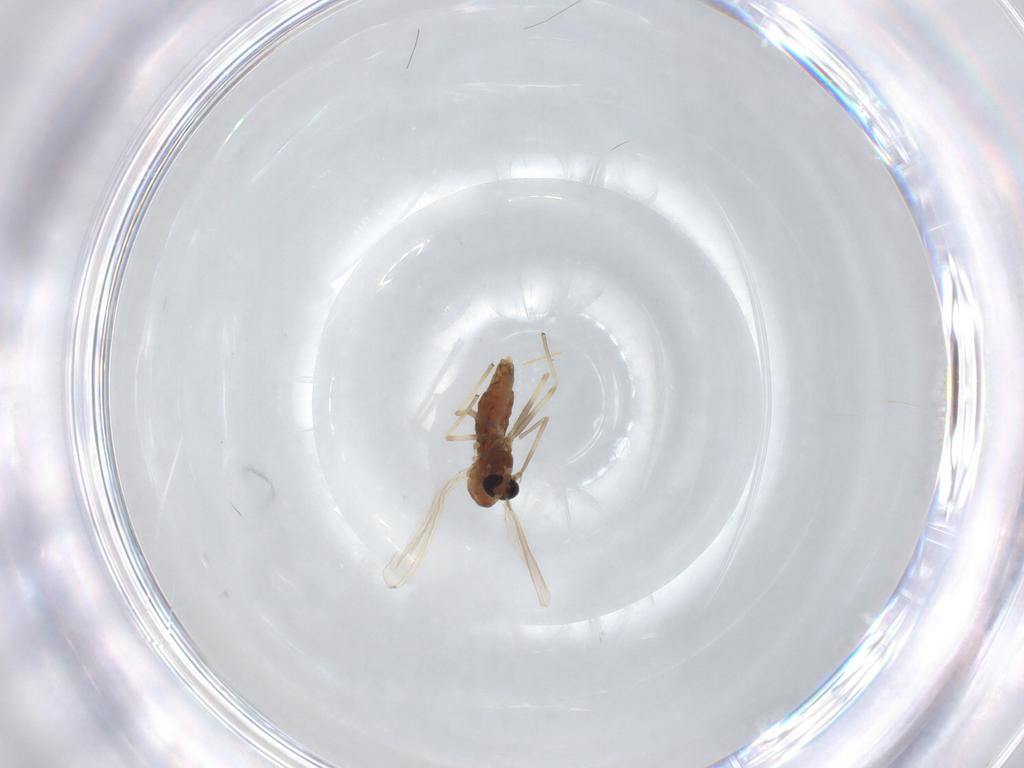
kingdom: Animalia
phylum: Arthropoda
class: Insecta
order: Diptera
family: Chironomidae
